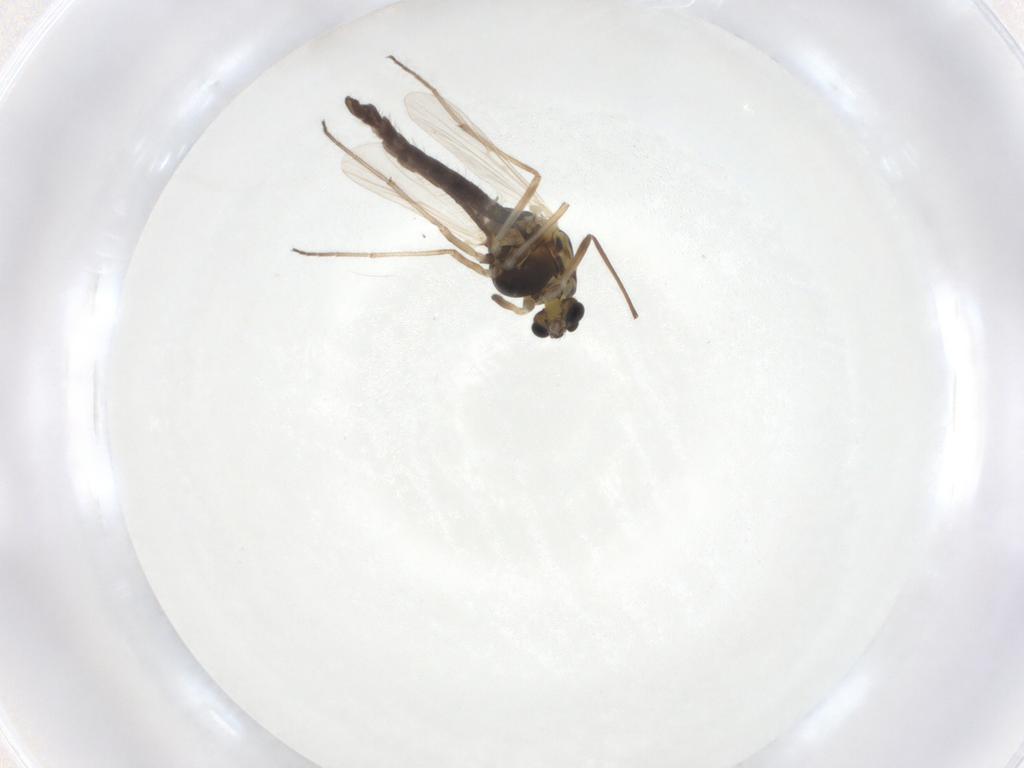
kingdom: Animalia
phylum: Arthropoda
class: Insecta
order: Diptera
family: Chironomidae
